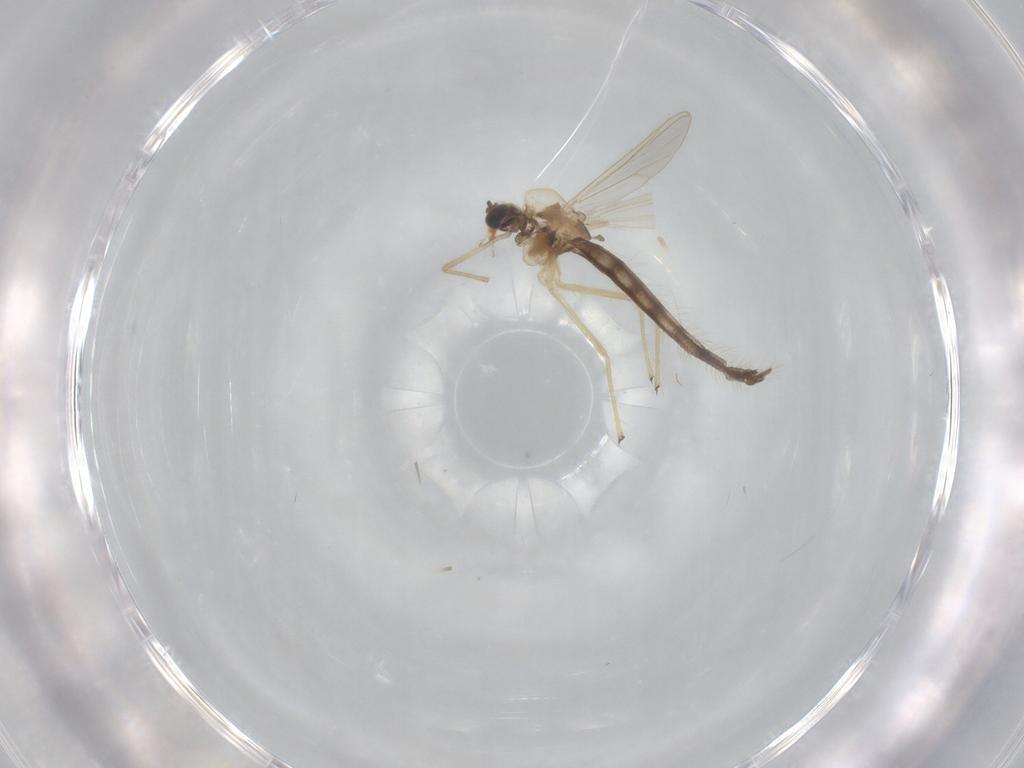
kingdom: Animalia
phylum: Arthropoda
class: Insecta
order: Diptera
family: Chironomidae
